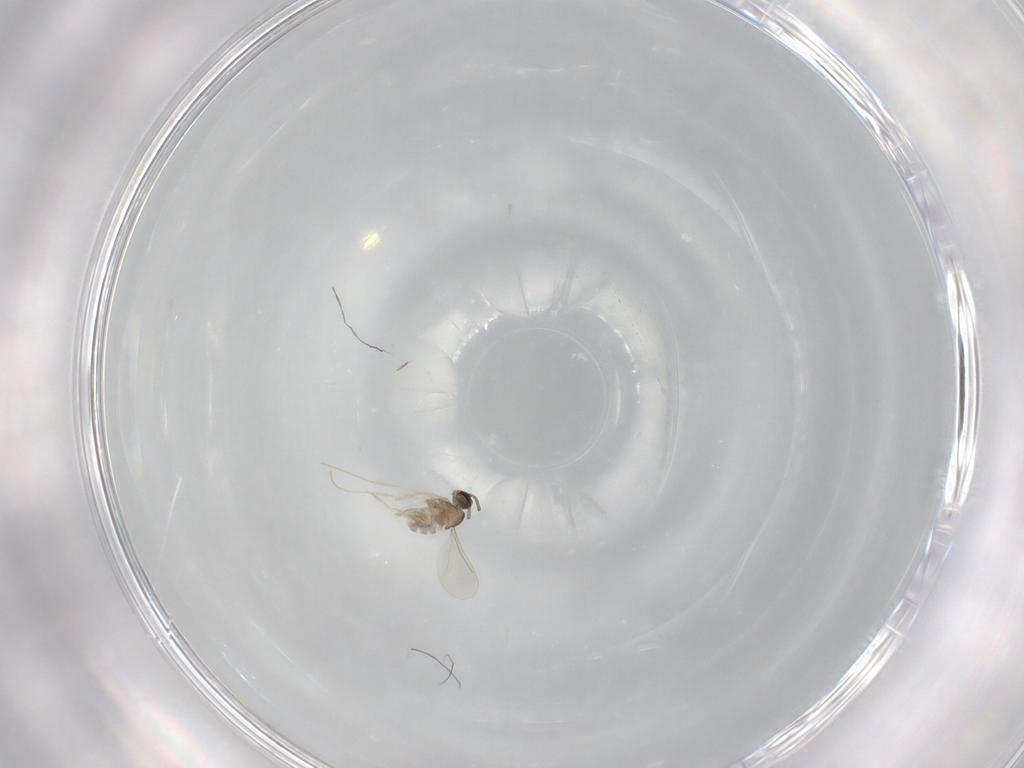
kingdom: Animalia
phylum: Arthropoda
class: Insecta
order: Diptera
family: Cecidomyiidae
